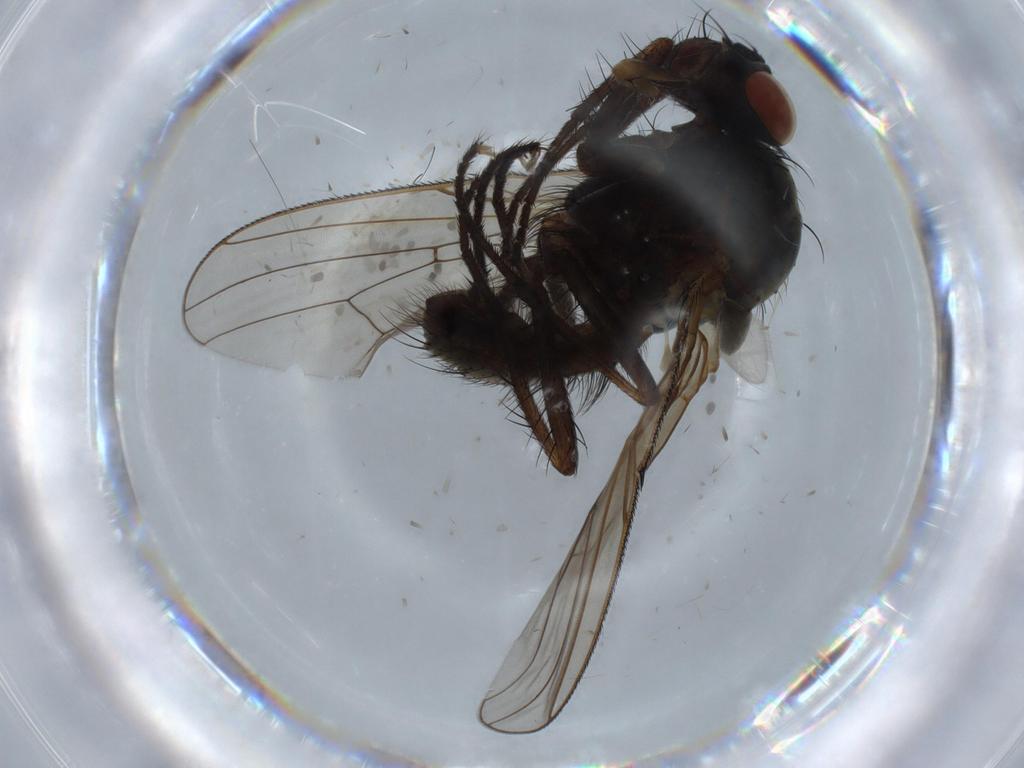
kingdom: Animalia
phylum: Arthropoda
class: Insecta
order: Diptera
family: Anthomyiidae
